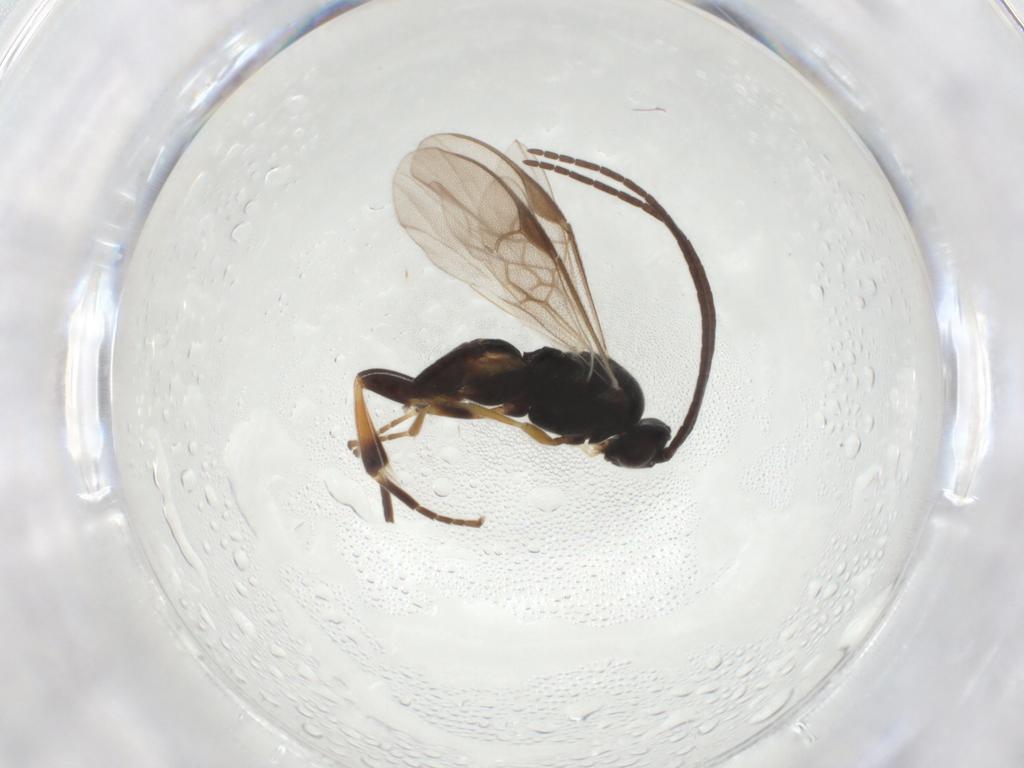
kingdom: Animalia
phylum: Arthropoda
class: Insecta
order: Hymenoptera
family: Braconidae
